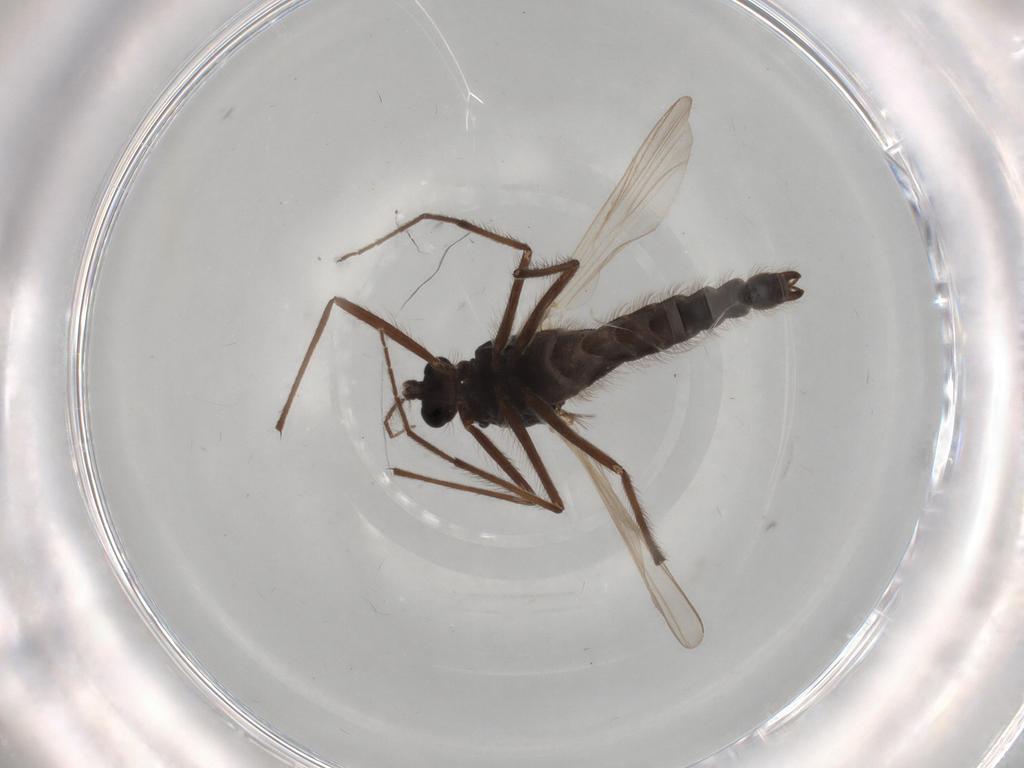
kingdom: Animalia
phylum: Arthropoda
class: Insecta
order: Diptera
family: Sciaridae
